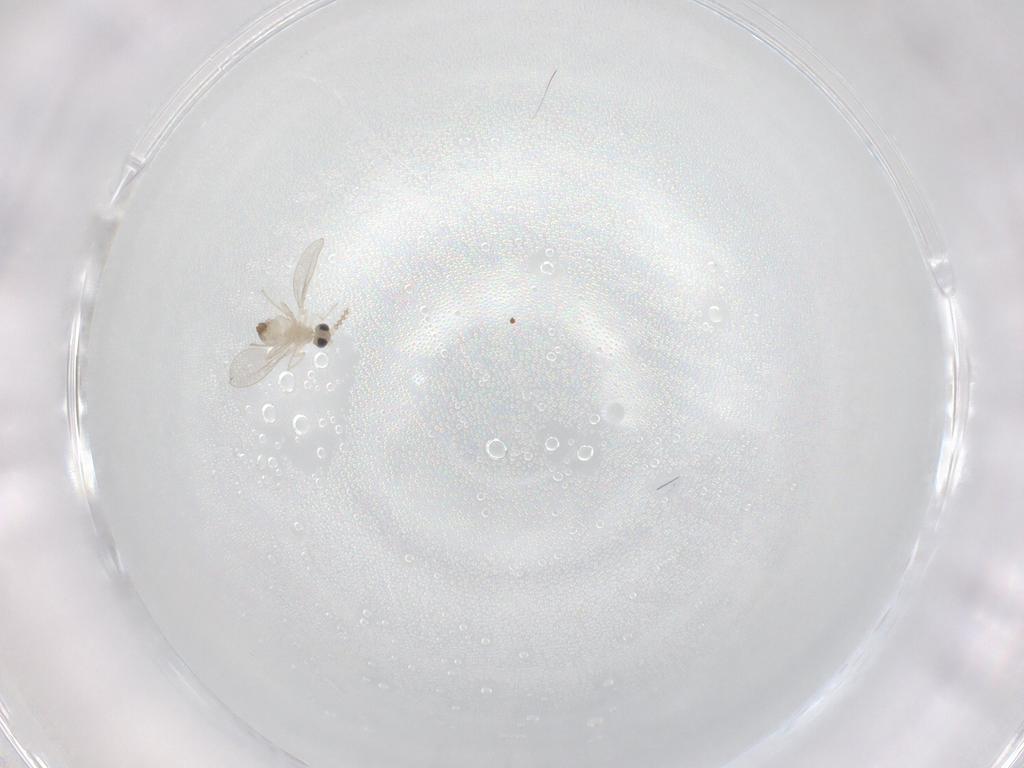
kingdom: Animalia
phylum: Arthropoda
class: Insecta
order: Diptera
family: Cecidomyiidae
